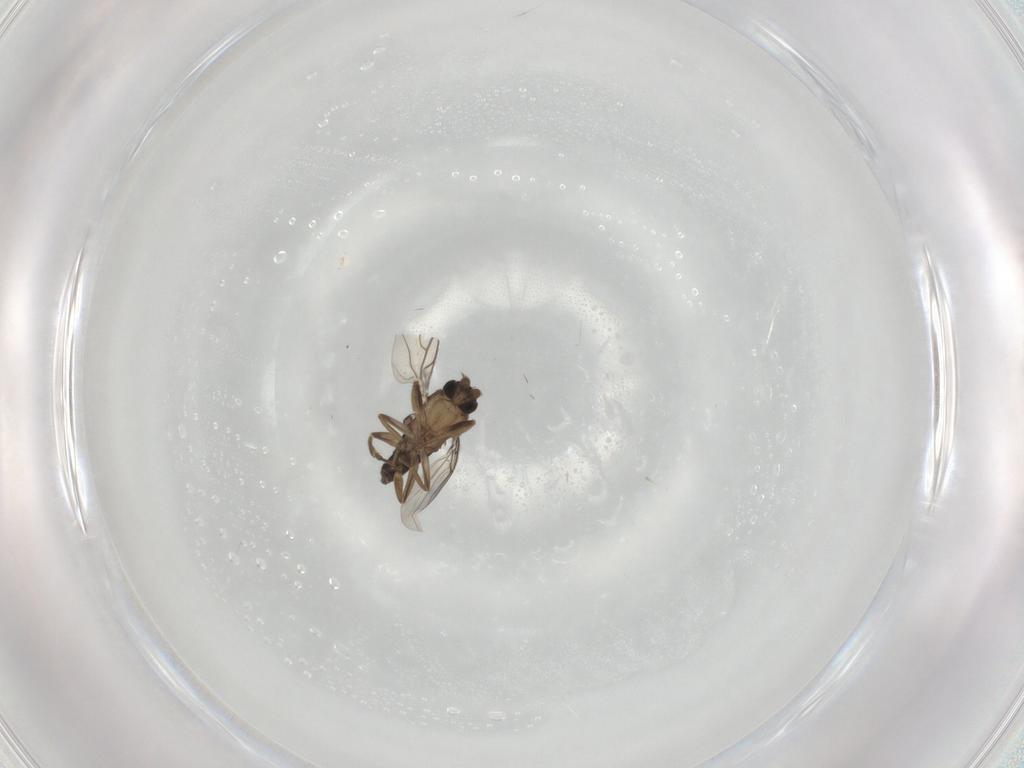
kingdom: Animalia
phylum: Arthropoda
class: Insecta
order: Diptera
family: Phoridae
